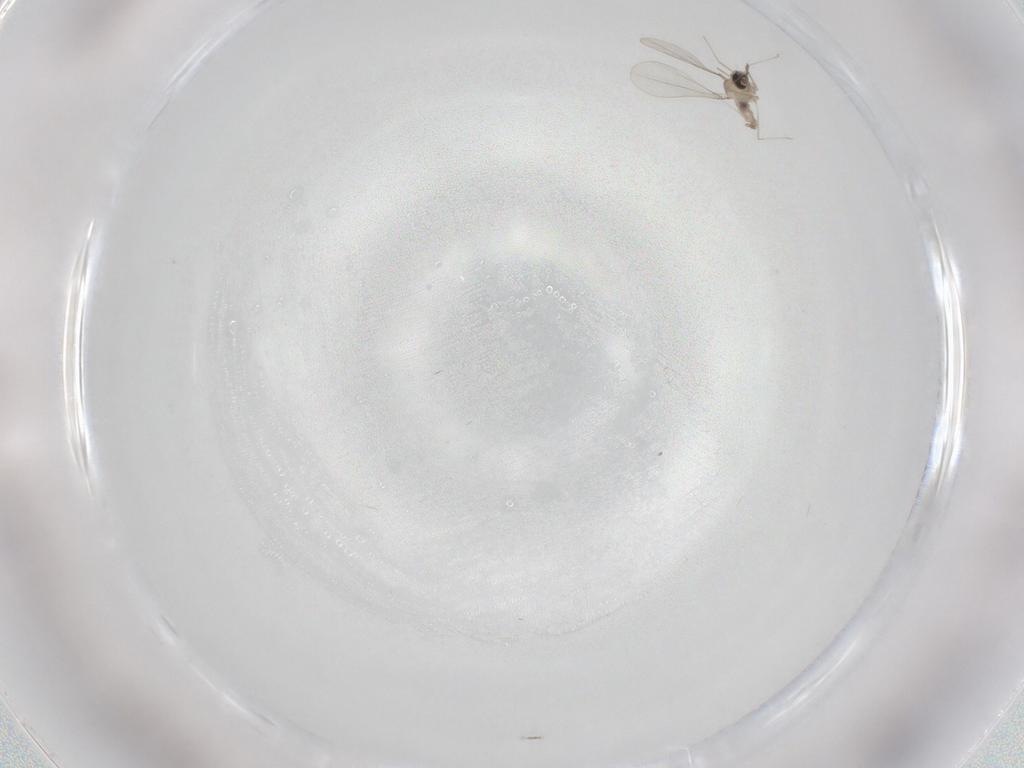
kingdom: Animalia
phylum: Arthropoda
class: Insecta
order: Diptera
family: Cecidomyiidae
